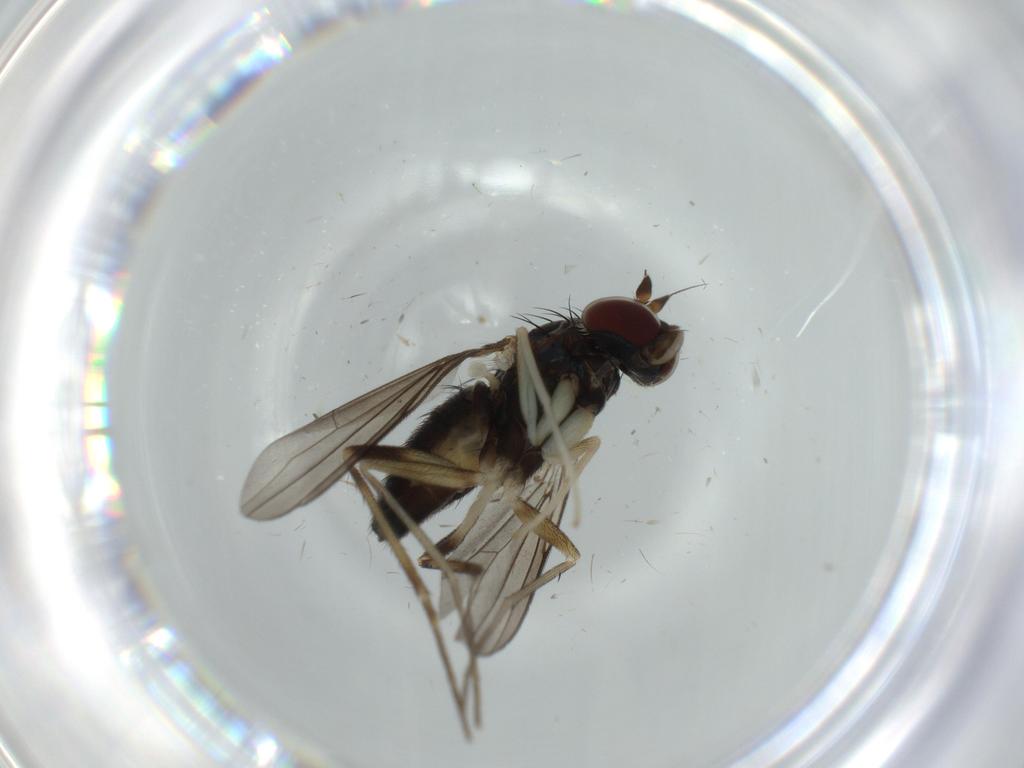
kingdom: Animalia
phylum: Arthropoda
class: Insecta
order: Diptera
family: Dolichopodidae
